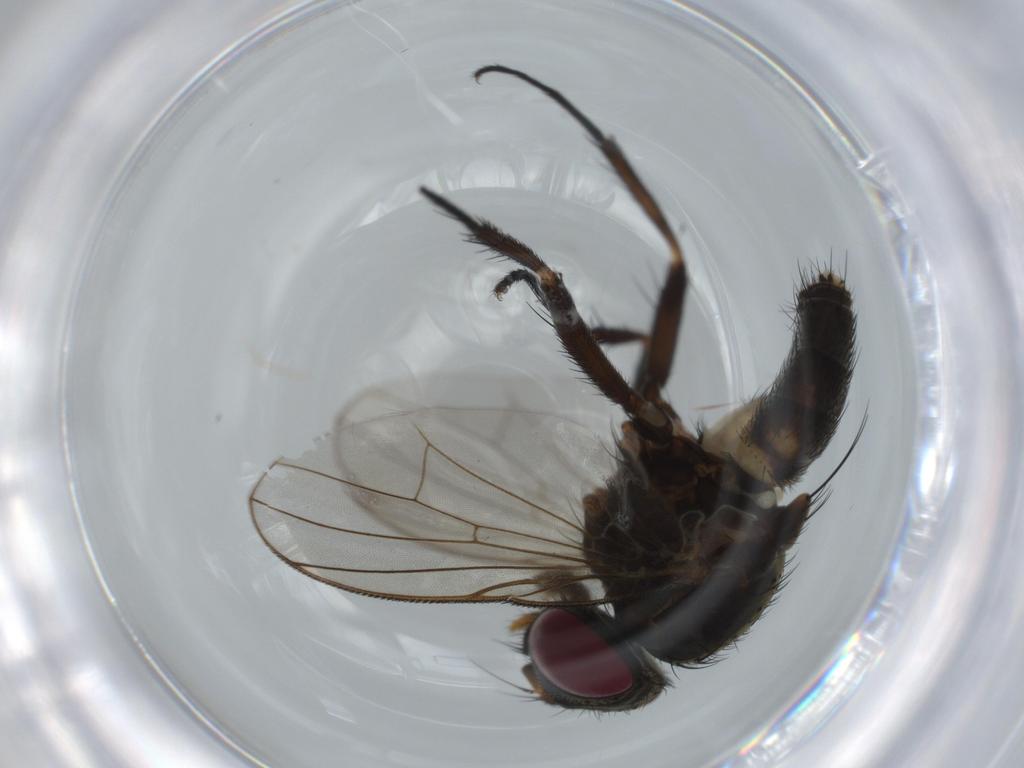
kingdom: Animalia
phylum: Arthropoda
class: Insecta
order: Diptera
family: Fannia
